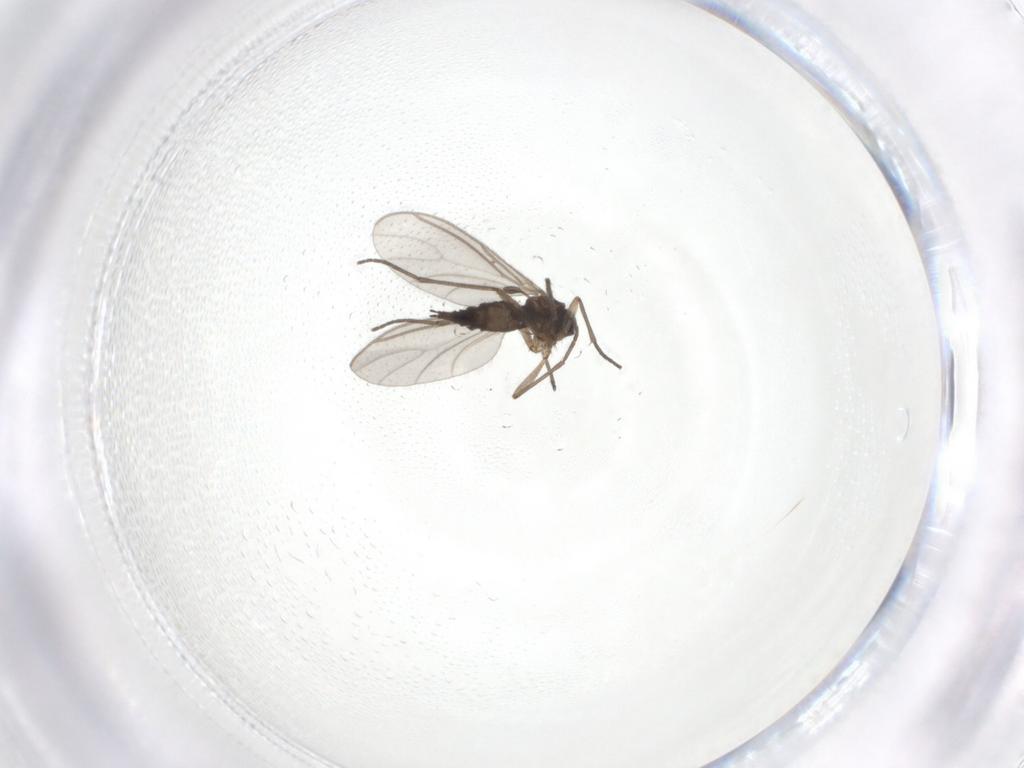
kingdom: Animalia
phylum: Arthropoda
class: Insecta
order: Diptera
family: Sciaridae
